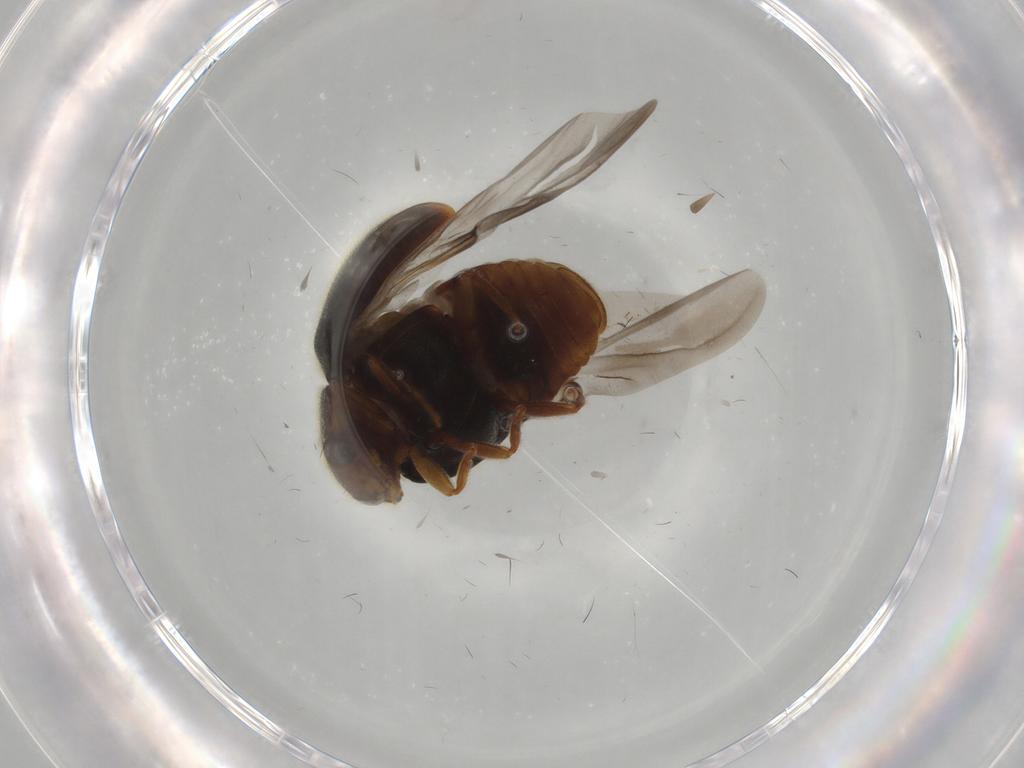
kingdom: Animalia
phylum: Arthropoda
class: Insecta
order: Coleoptera
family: Coccinellidae
